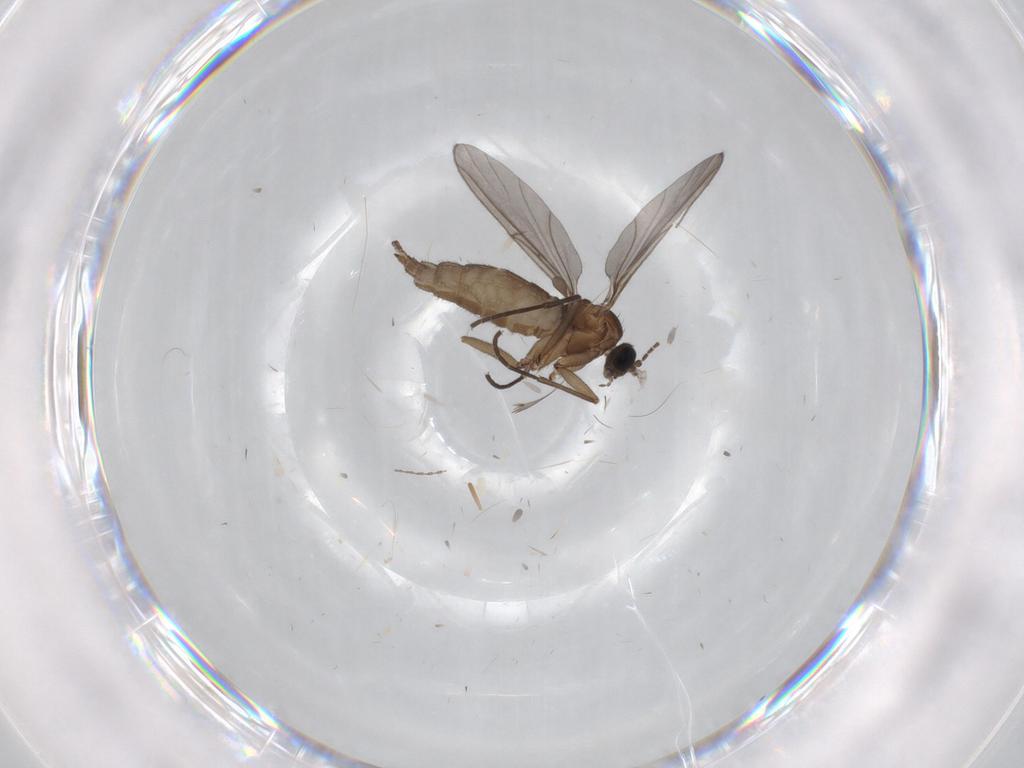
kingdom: Animalia
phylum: Arthropoda
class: Insecta
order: Diptera
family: Sciaridae
